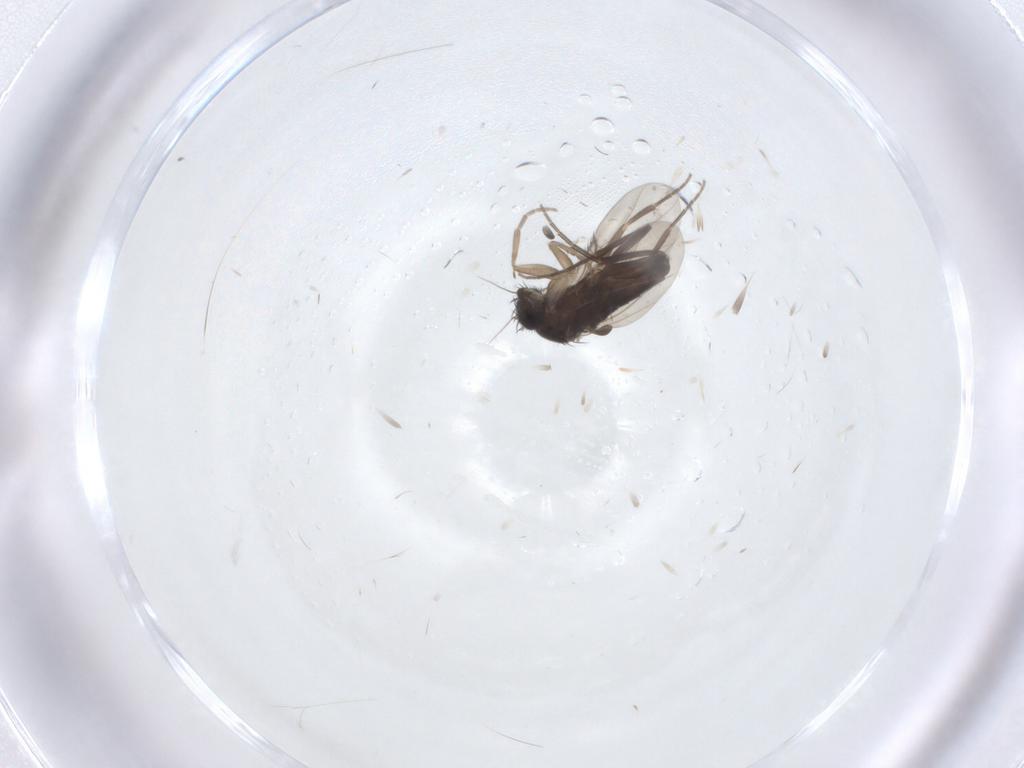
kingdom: Animalia
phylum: Arthropoda
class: Insecta
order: Diptera
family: Phoridae
